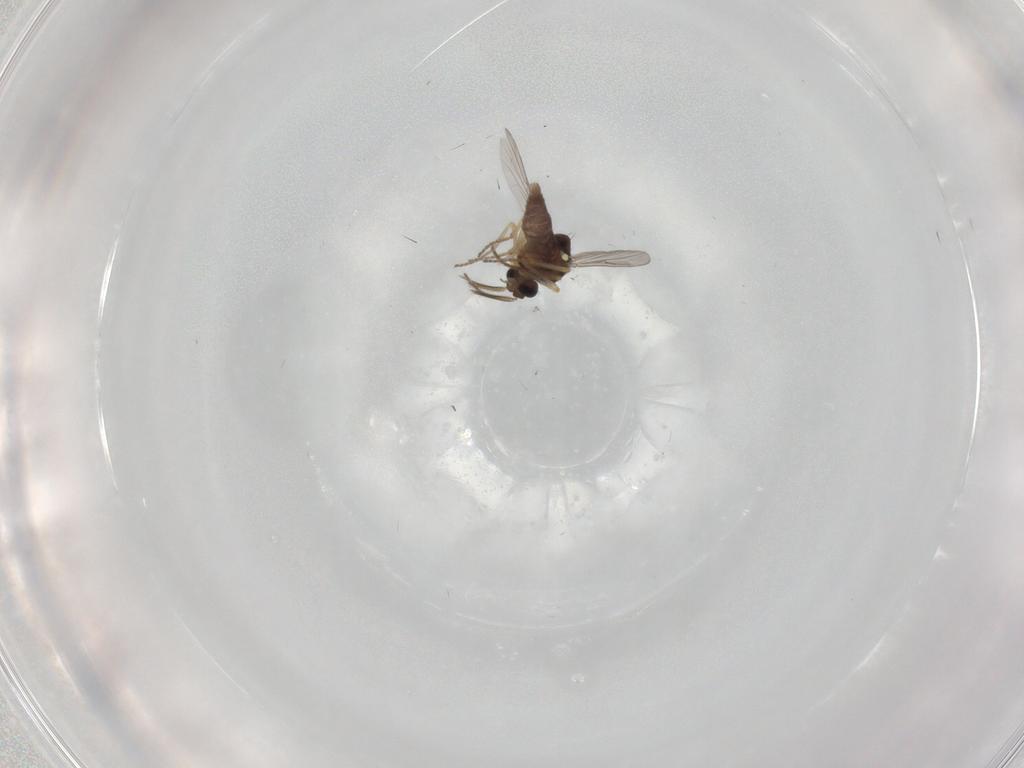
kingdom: Animalia
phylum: Arthropoda
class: Insecta
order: Diptera
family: Ceratopogonidae
